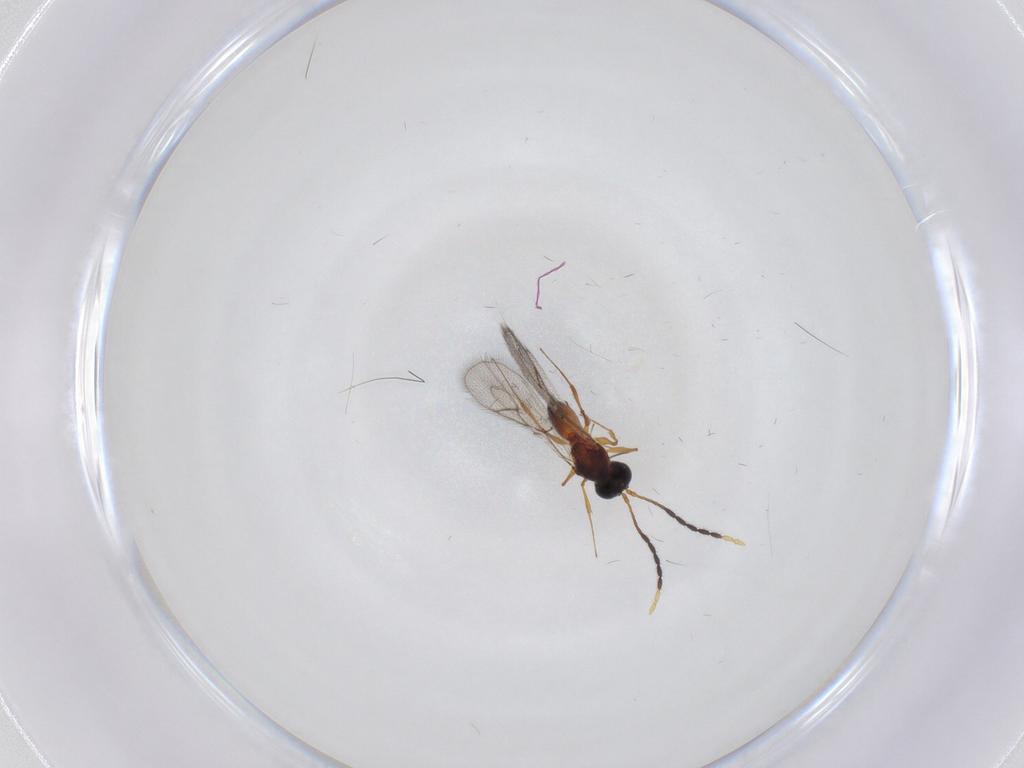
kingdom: Animalia
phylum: Arthropoda
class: Insecta
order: Hymenoptera
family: Figitidae
